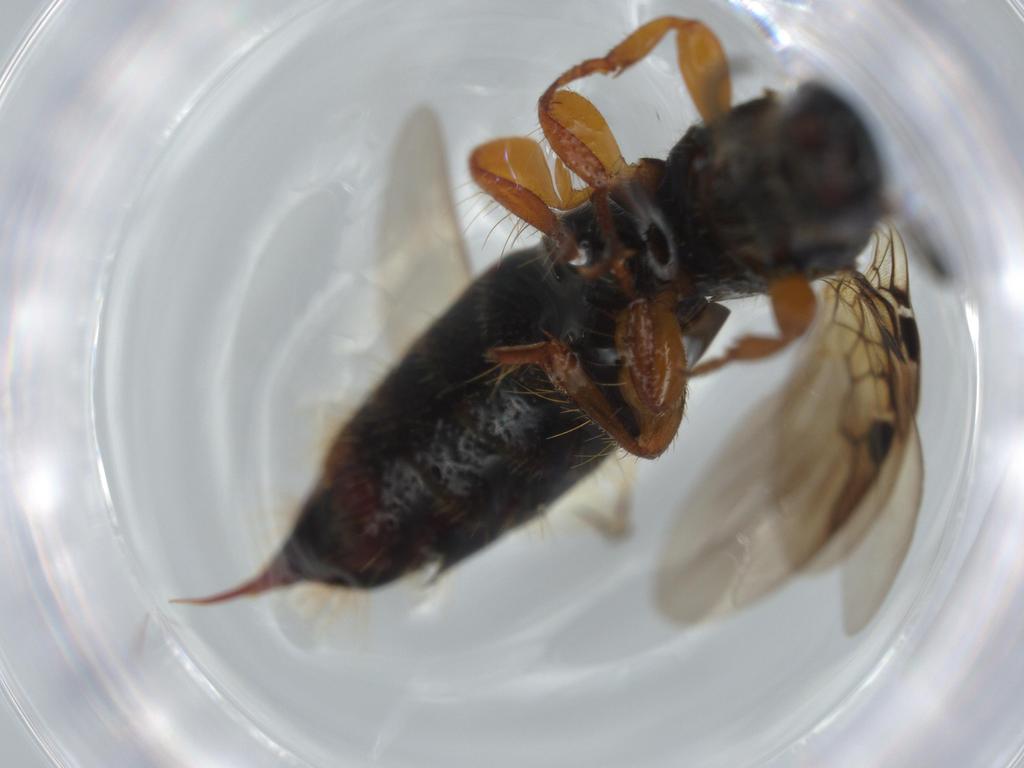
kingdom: Animalia
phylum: Arthropoda
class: Insecta
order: Hymenoptera
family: Scolebythidae
